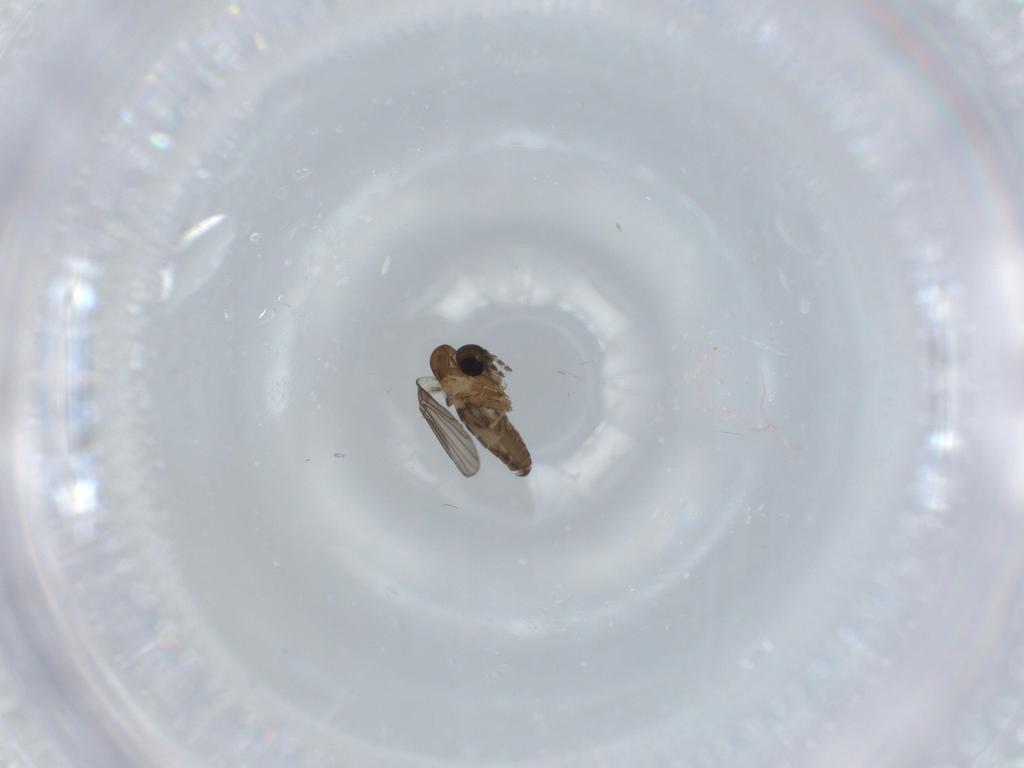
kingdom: Animalia
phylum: Arthropoda
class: Insecta
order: Diptera
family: Psychodidae
